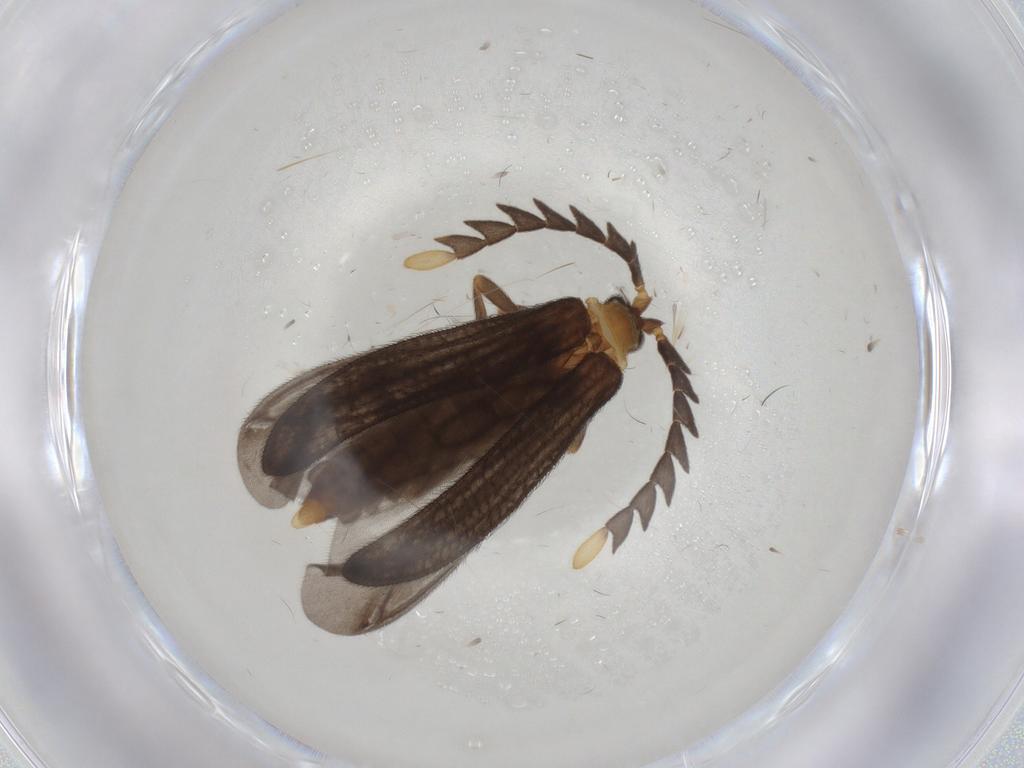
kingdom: Animalia
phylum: Arthropoda
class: Insecta
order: Coleoptera
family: Lycidae
